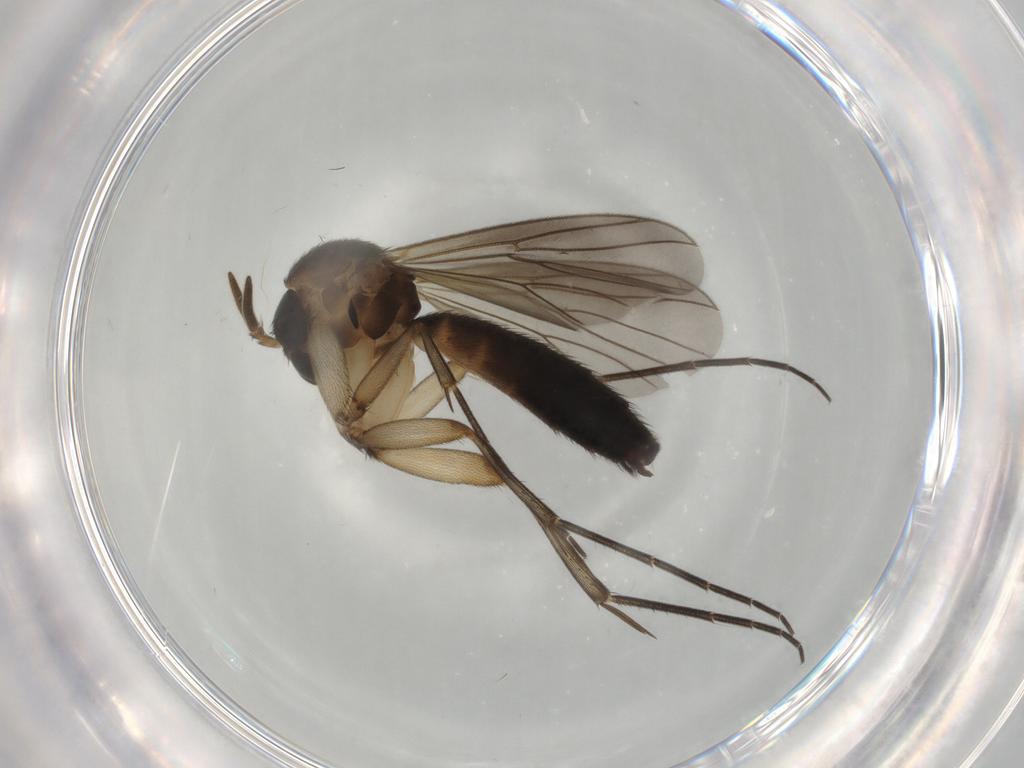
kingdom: Animalia
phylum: Arthropoda
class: Insecta
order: Diptera
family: Mycetophilidae
